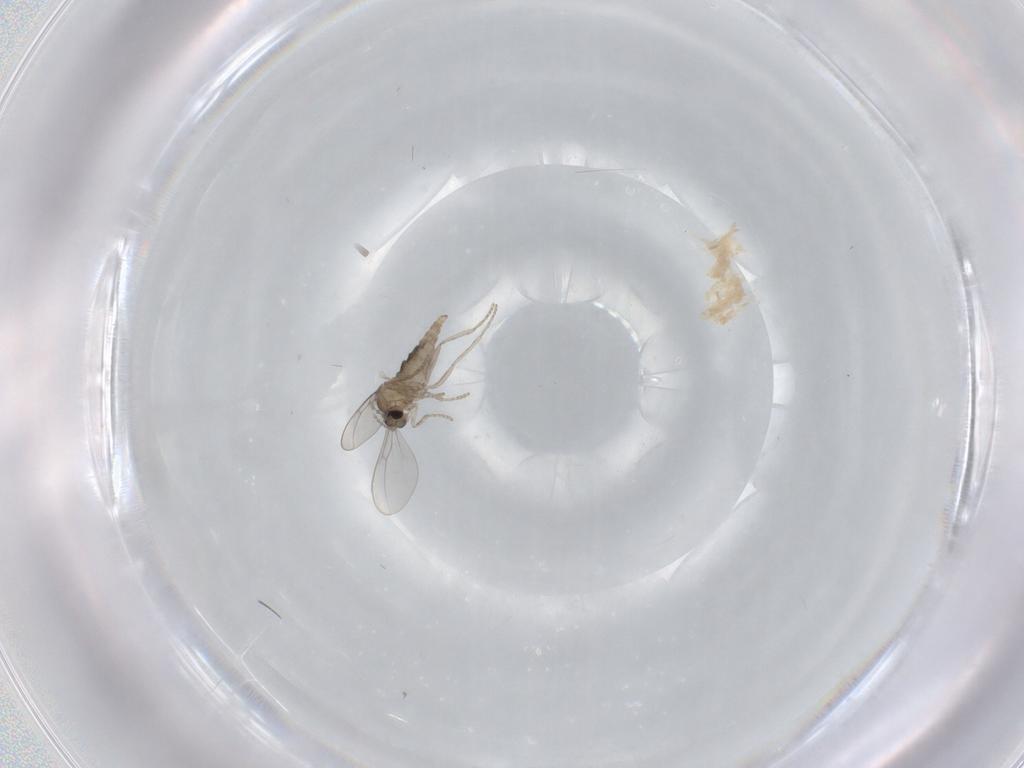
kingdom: Animalia
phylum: Arthropoda
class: Insecta
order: Diptera
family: Cecidomyiidae
